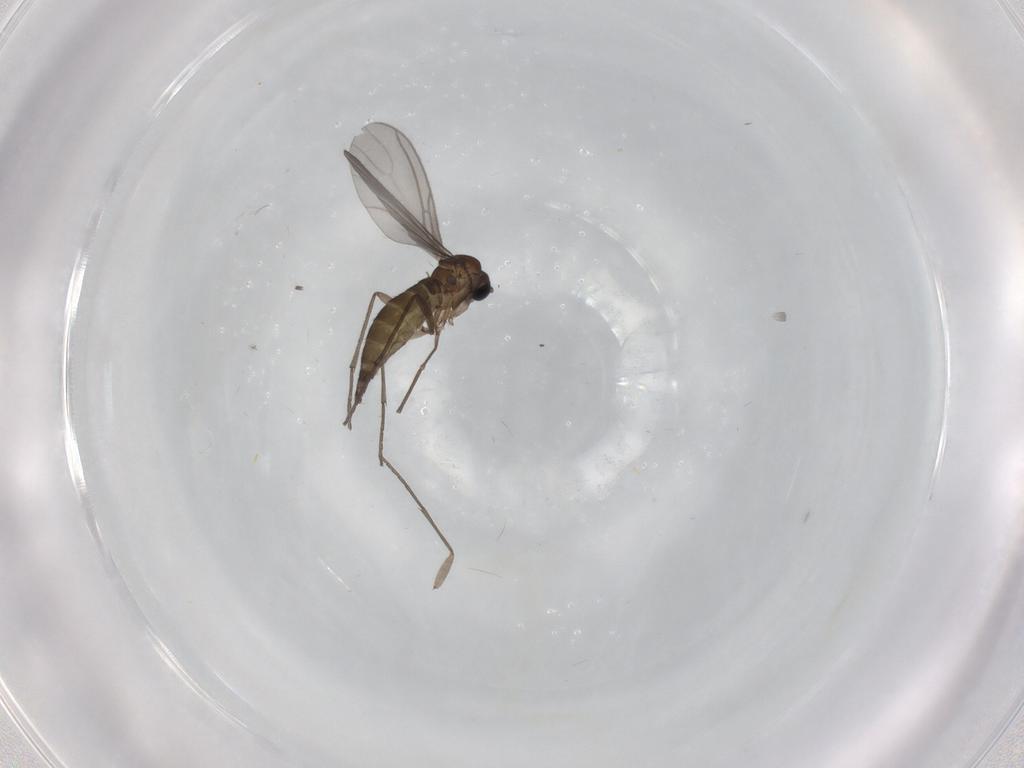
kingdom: Animalia
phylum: Arthropoda
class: Insecta
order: Diptera
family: Sciaridae
